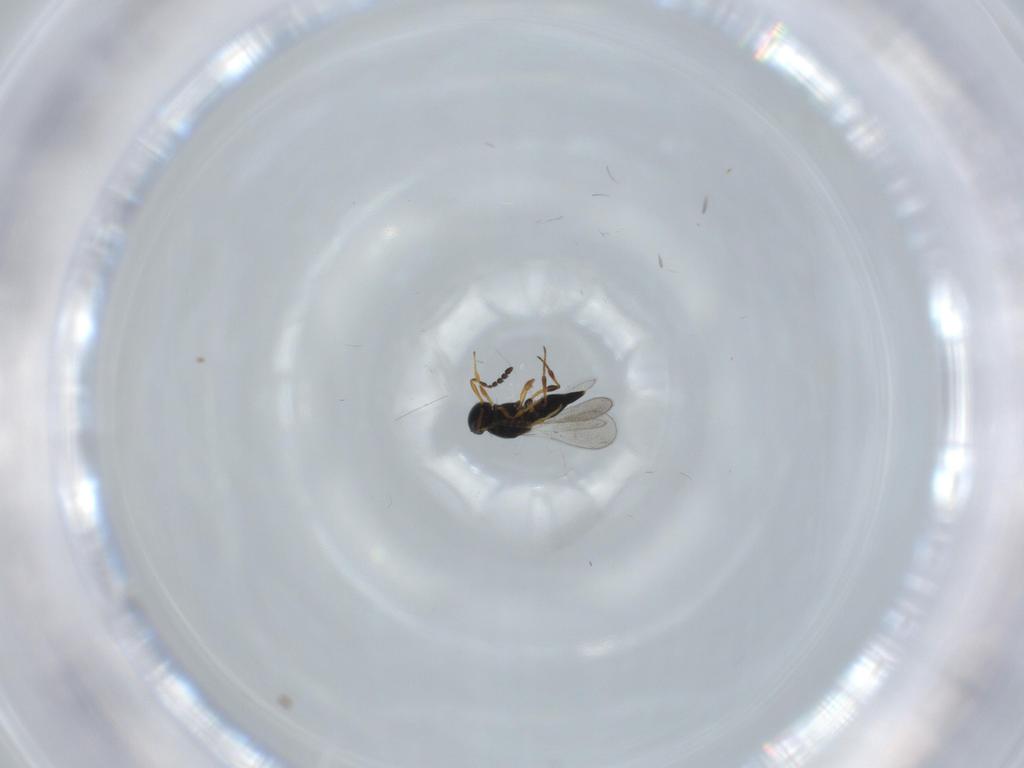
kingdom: Animalia
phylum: Arthropoda
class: Insecta
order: Hymenoptera
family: Platygastridae
